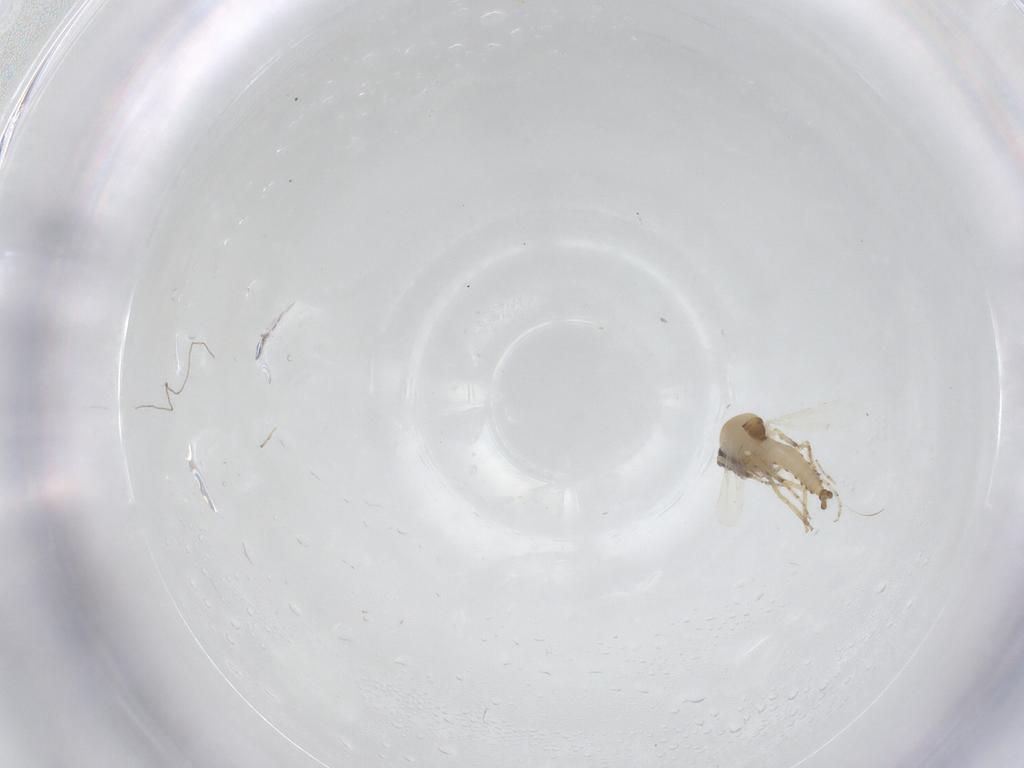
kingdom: Animalia
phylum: Arthropoda
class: Insecta
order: Diptera
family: Ceratopogonidae
